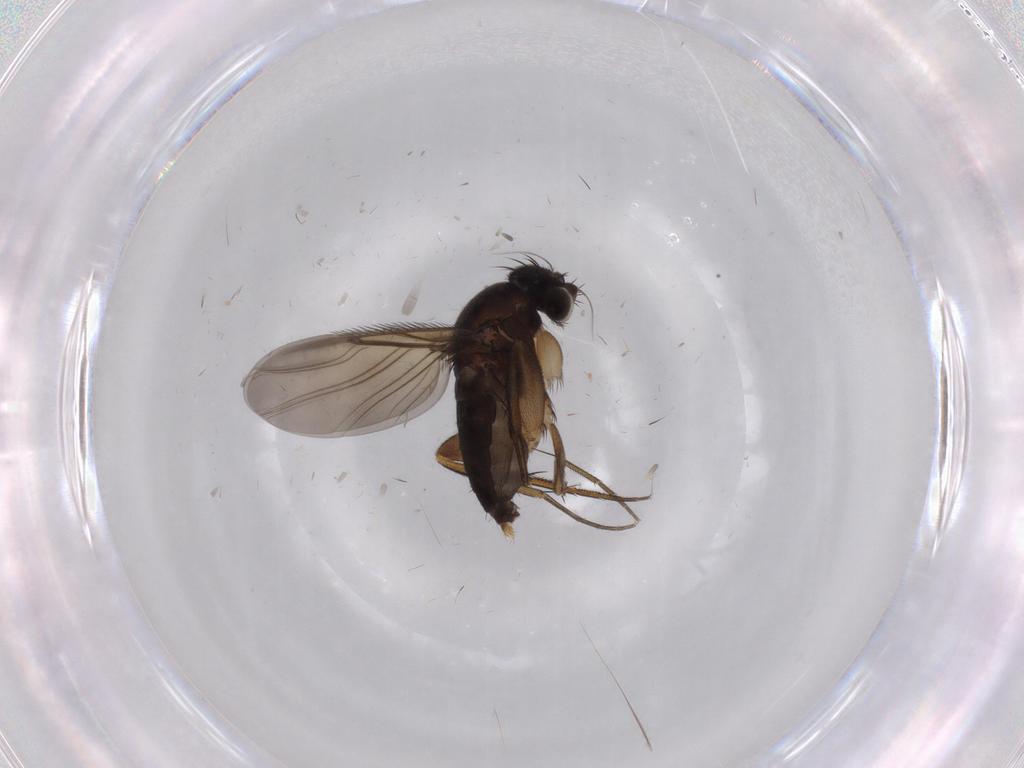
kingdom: Animalia
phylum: Arthropoda
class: Insecta
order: Diptera
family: Phoridae
